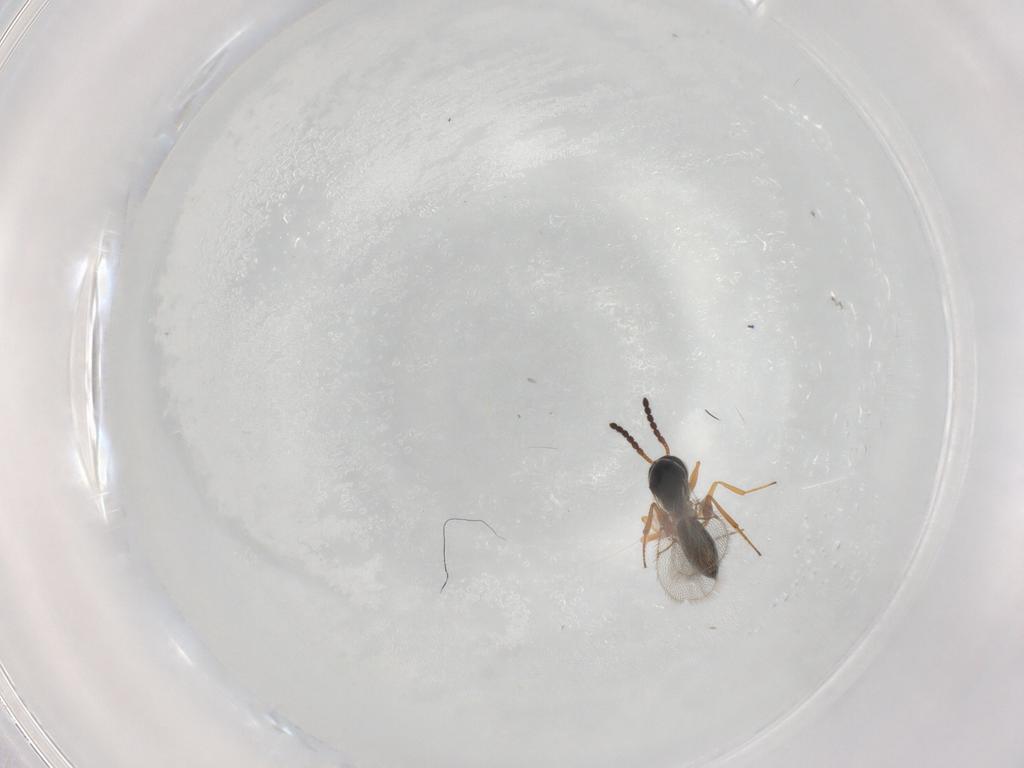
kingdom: Animalia
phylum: Arthropoda
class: Insecta
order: Hymenoptera
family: Figitidae
